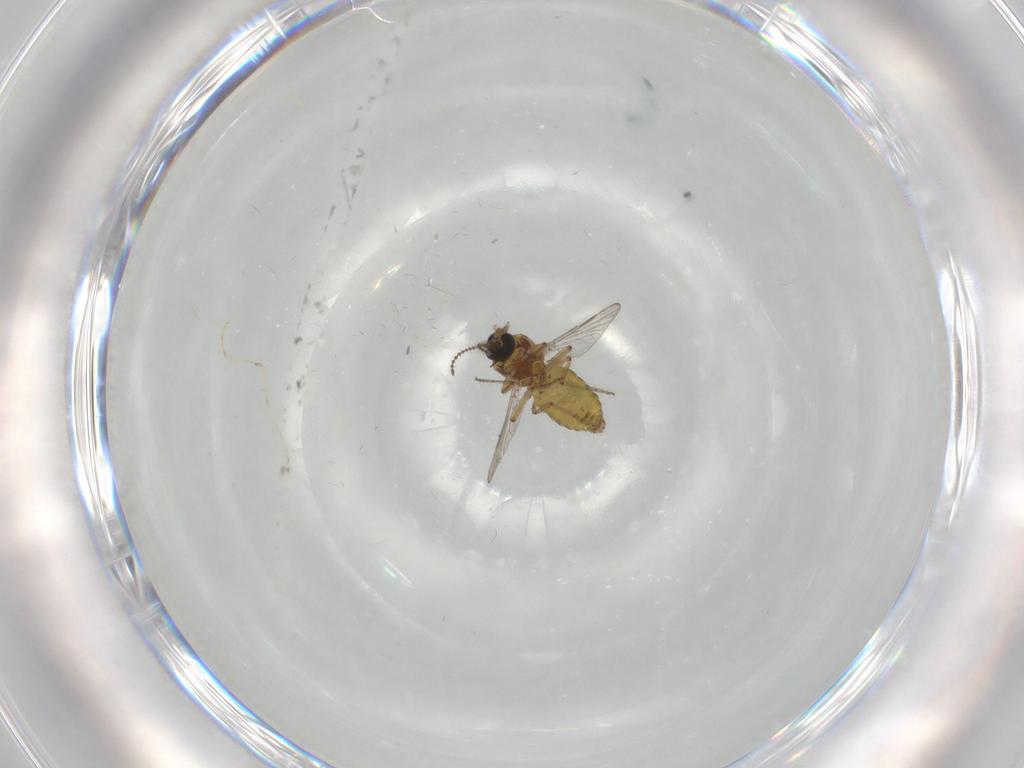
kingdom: Animalia
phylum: Arthropoda
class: Insecta
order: Diptera
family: Ceratopogonidae
